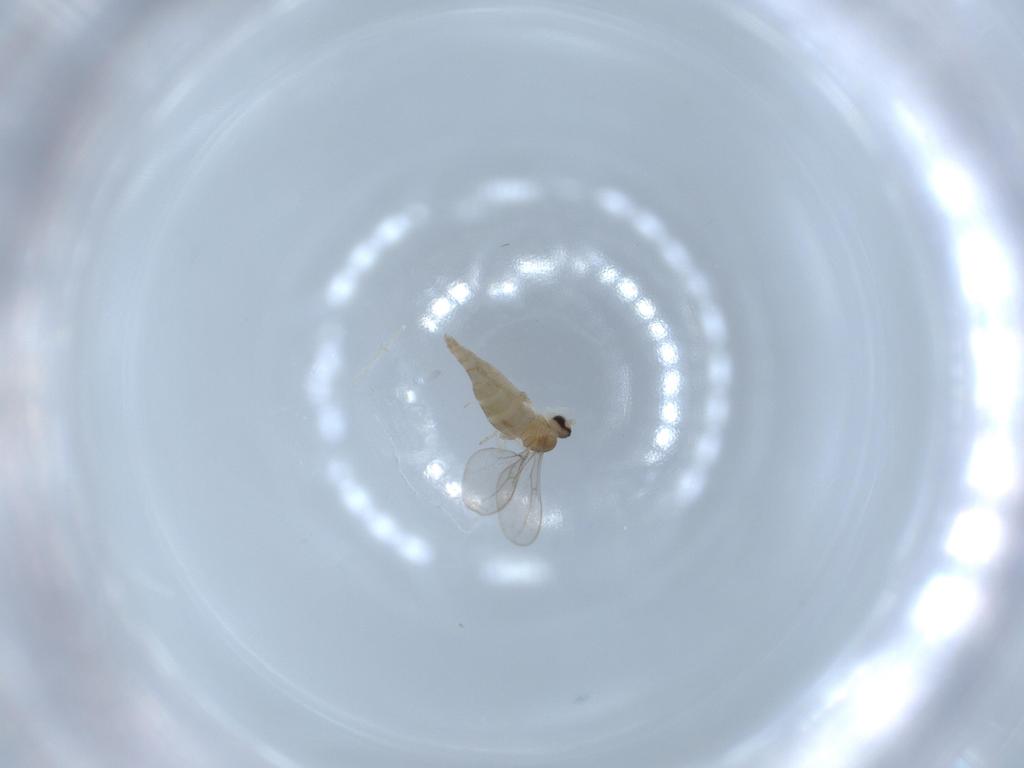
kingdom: Animalia
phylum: Arthropoda
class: Insecta
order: Diptera
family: Cecidomyiidae
